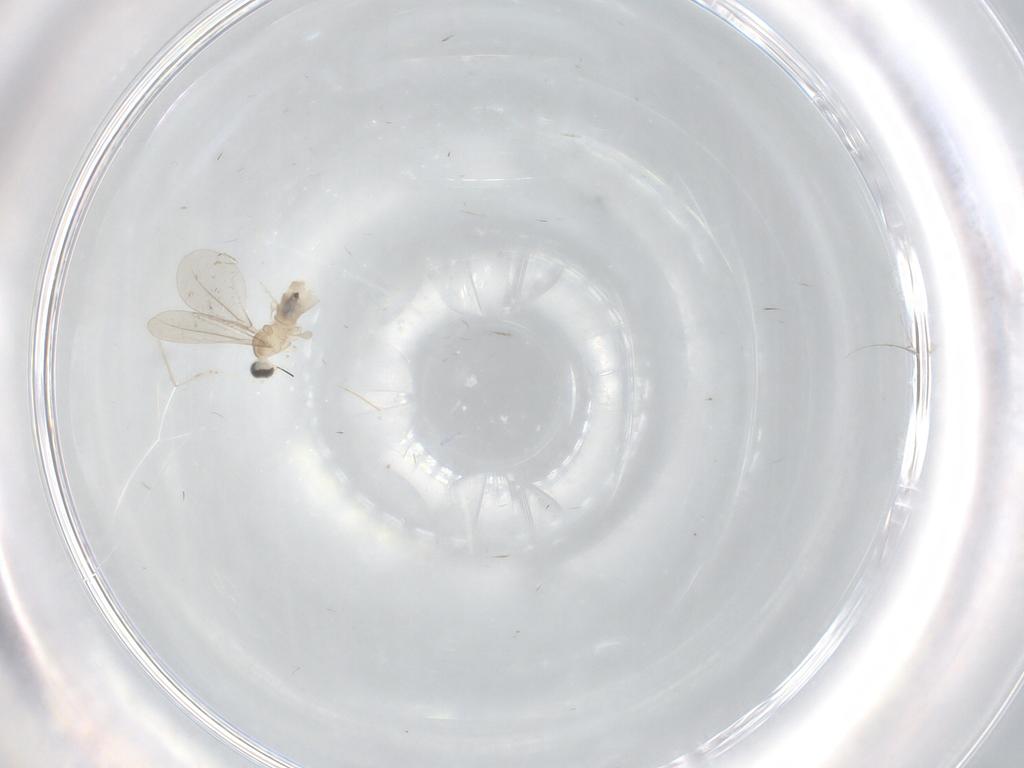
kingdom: Animalia
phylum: Arthropoda
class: Insecta
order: Diptera
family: Cecidomyiidae
